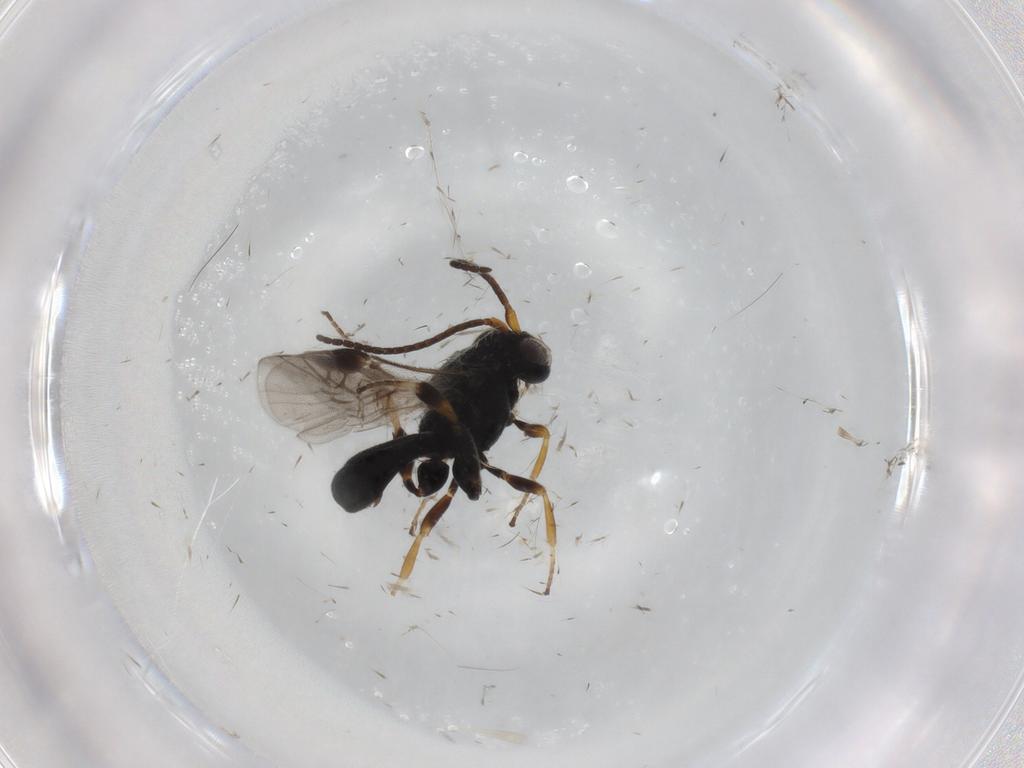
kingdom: Animalia
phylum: Arthropoda
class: Insecta
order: Hymenoptera
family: Braconidae
